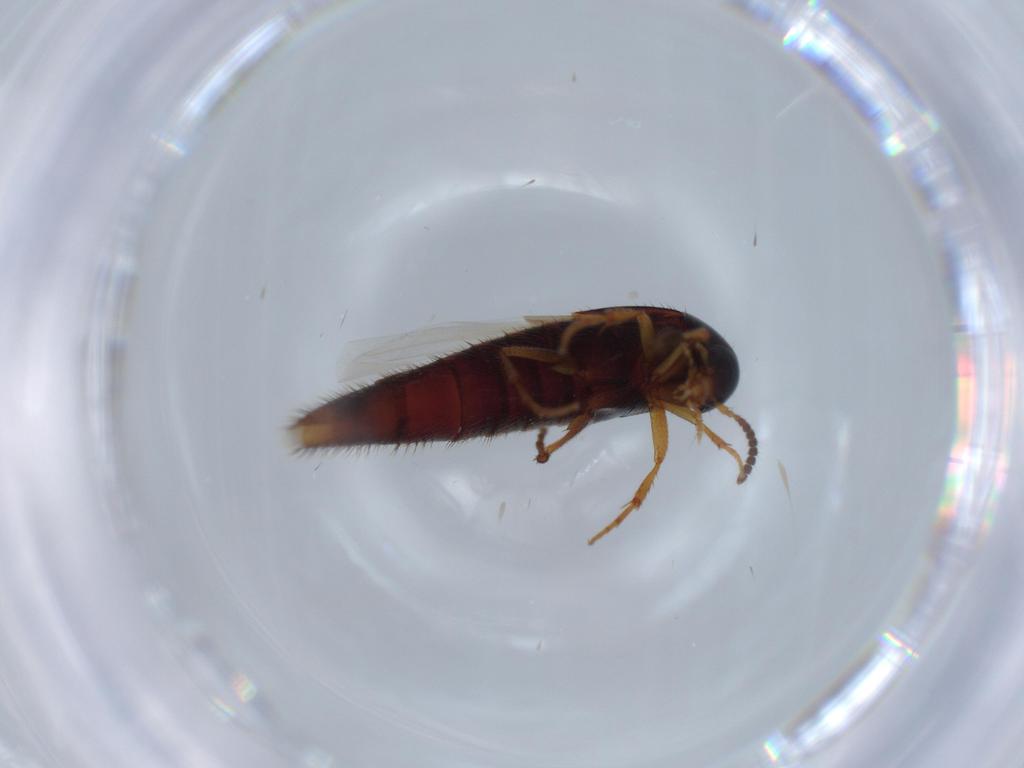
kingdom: Animalia
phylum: Arthropoda
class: Insecta
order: Coleoptera
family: Staphylinidae
